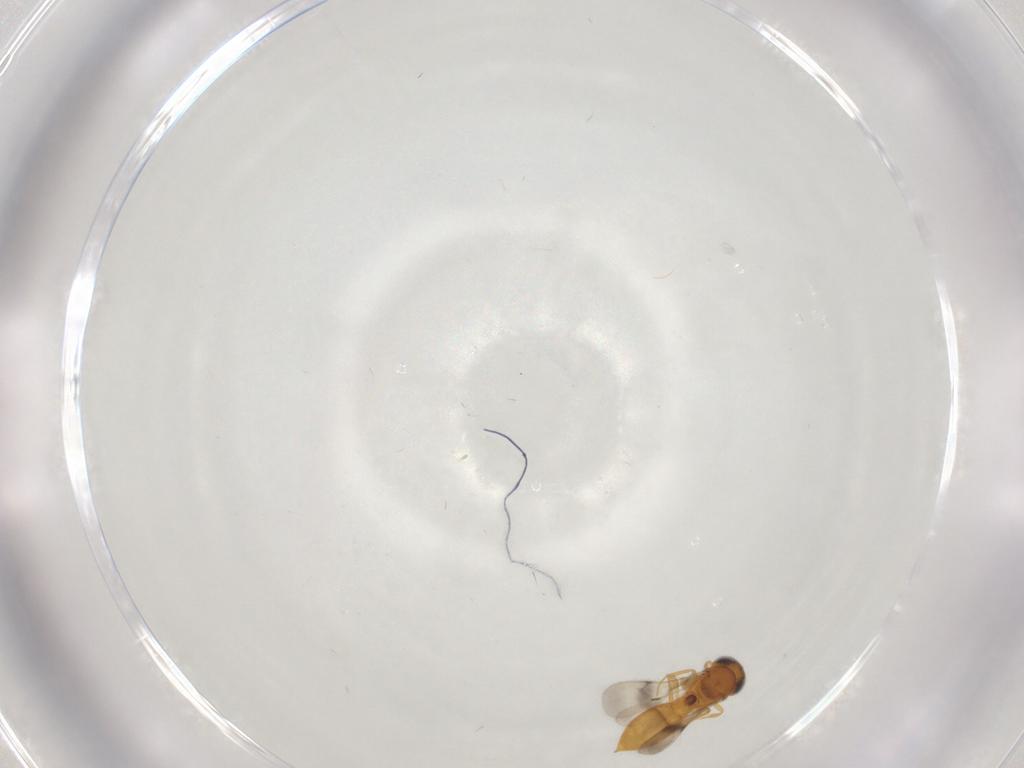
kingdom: Animalia
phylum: Arthropoda
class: Insecta
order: Hymenoptera
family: Scelionidae
